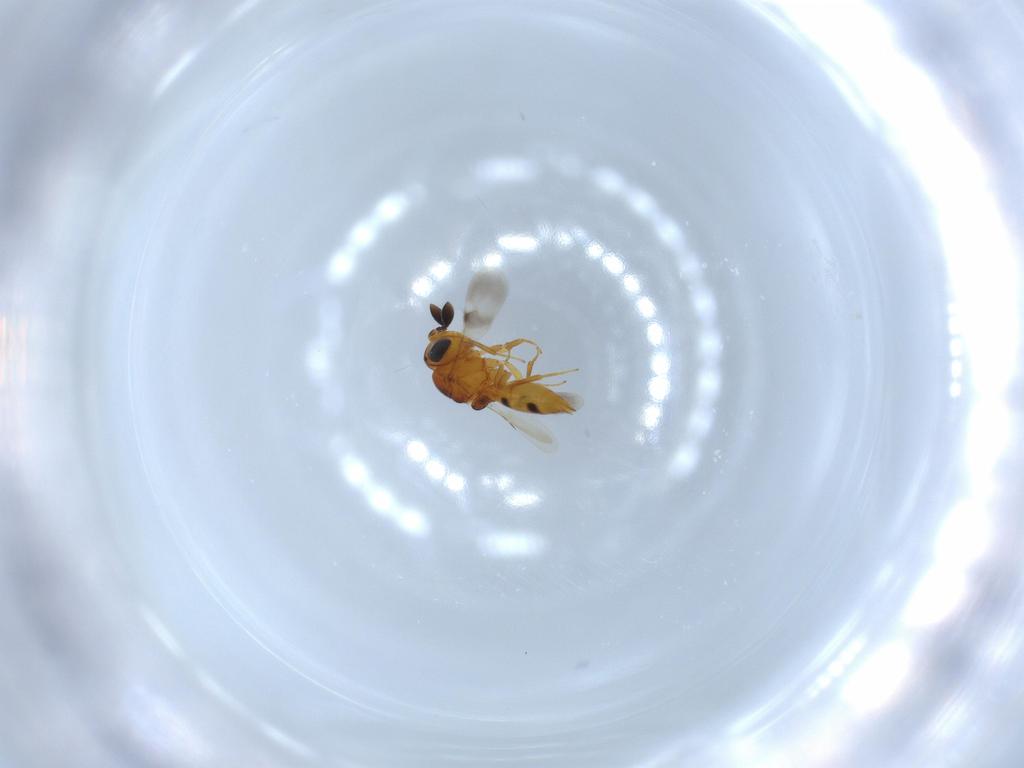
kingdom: Animalia
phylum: Arthropoda
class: Insecta
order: Hymenoptera
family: Scelionidae
